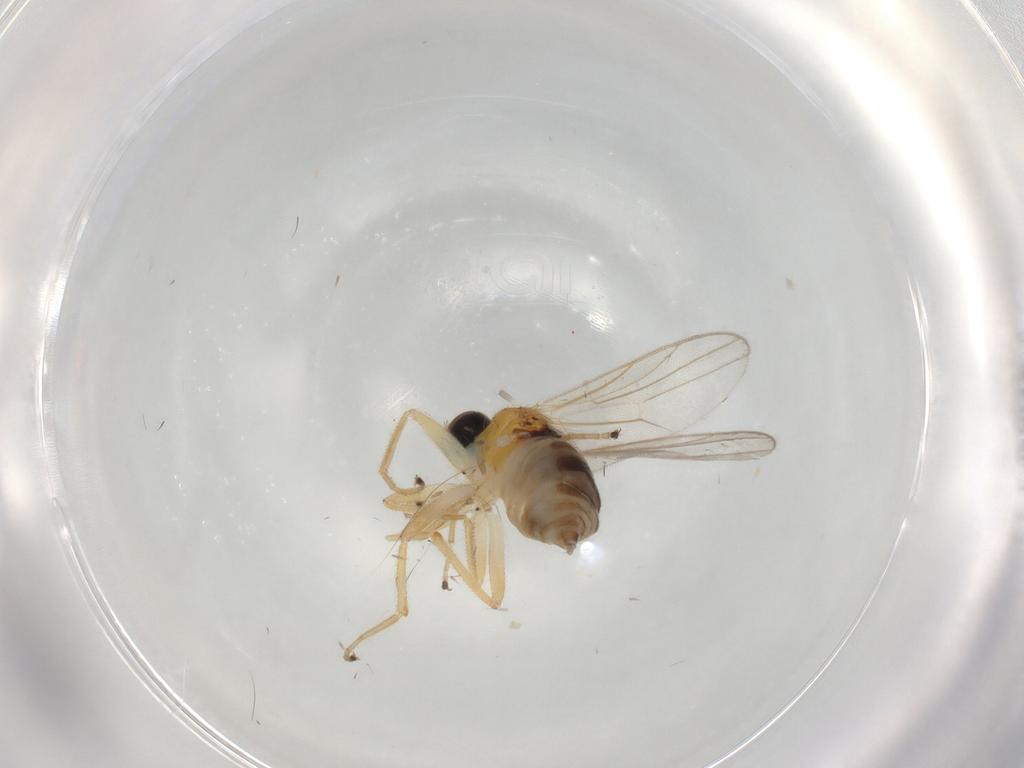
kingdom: Animalia
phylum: Arthropoda
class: Insecta
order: Diptera
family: Hybotidae
